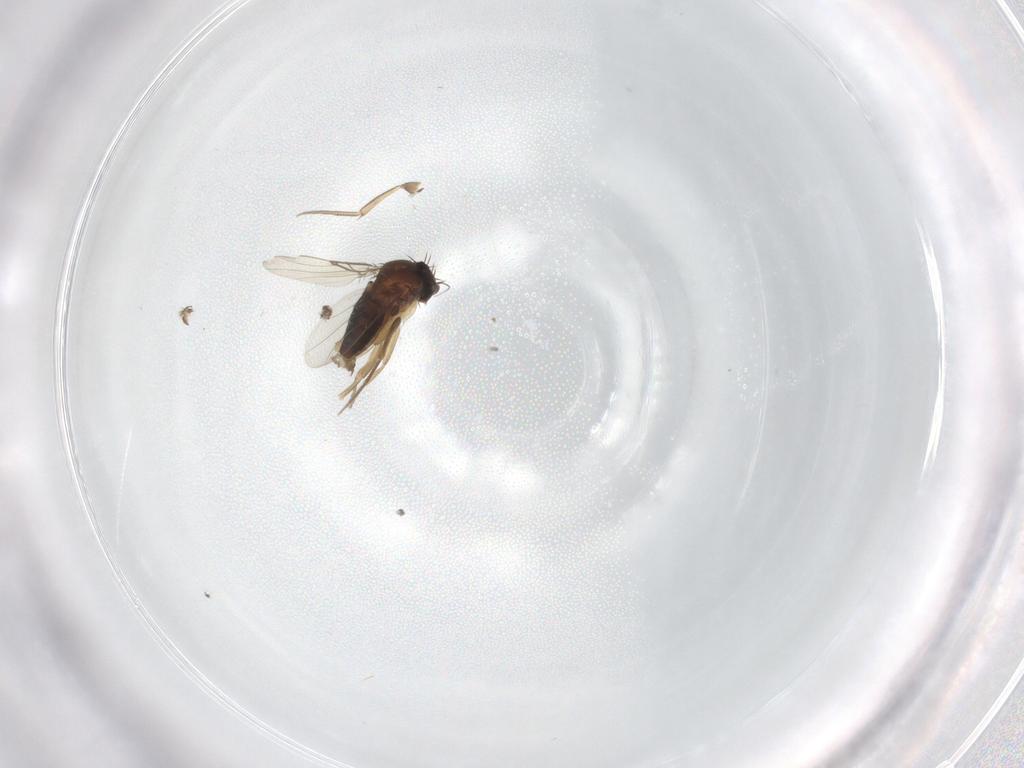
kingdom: Animalia
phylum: Arthropoda
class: Insecta
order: Diptera
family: Phoridae
